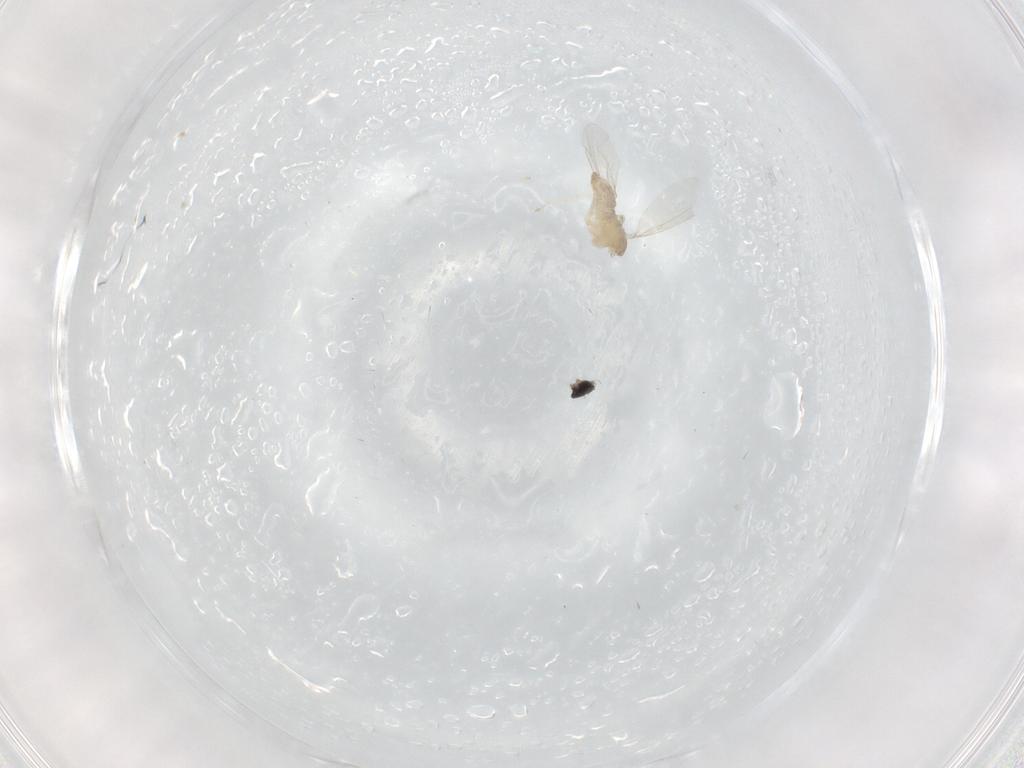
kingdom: Animalia
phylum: Arthropoda
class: Insecta
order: Diptera
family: Cecidomyiidae
